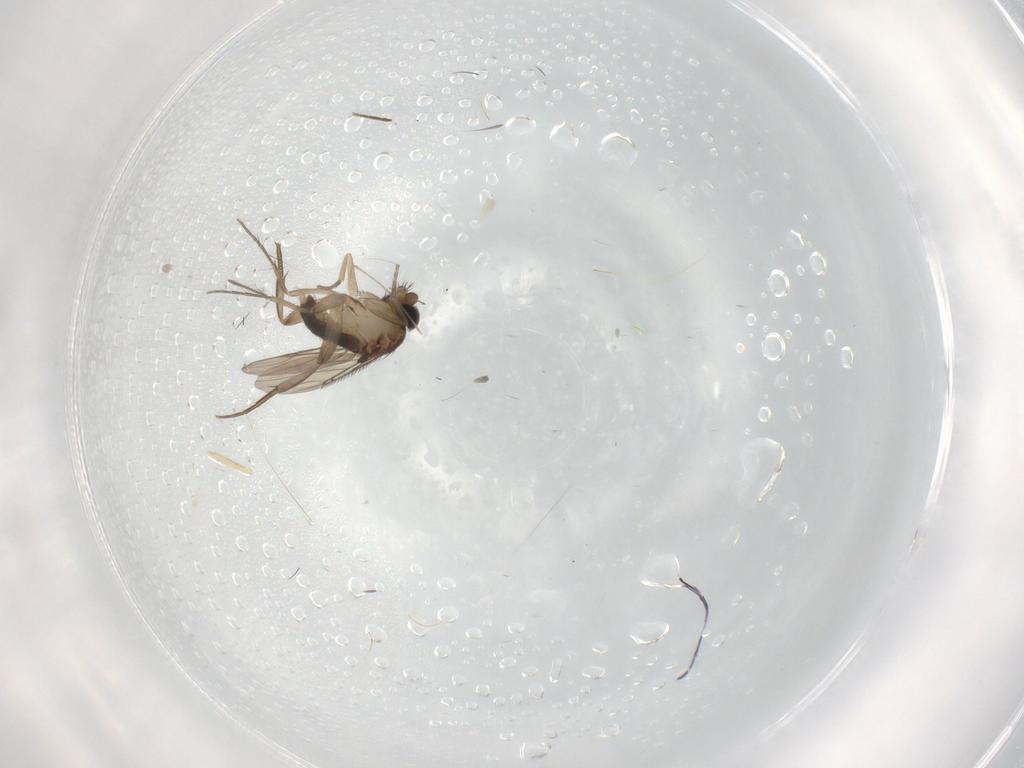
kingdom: Animalia
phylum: Arthropoda
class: Insecta
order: Diptera
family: Phoridae
